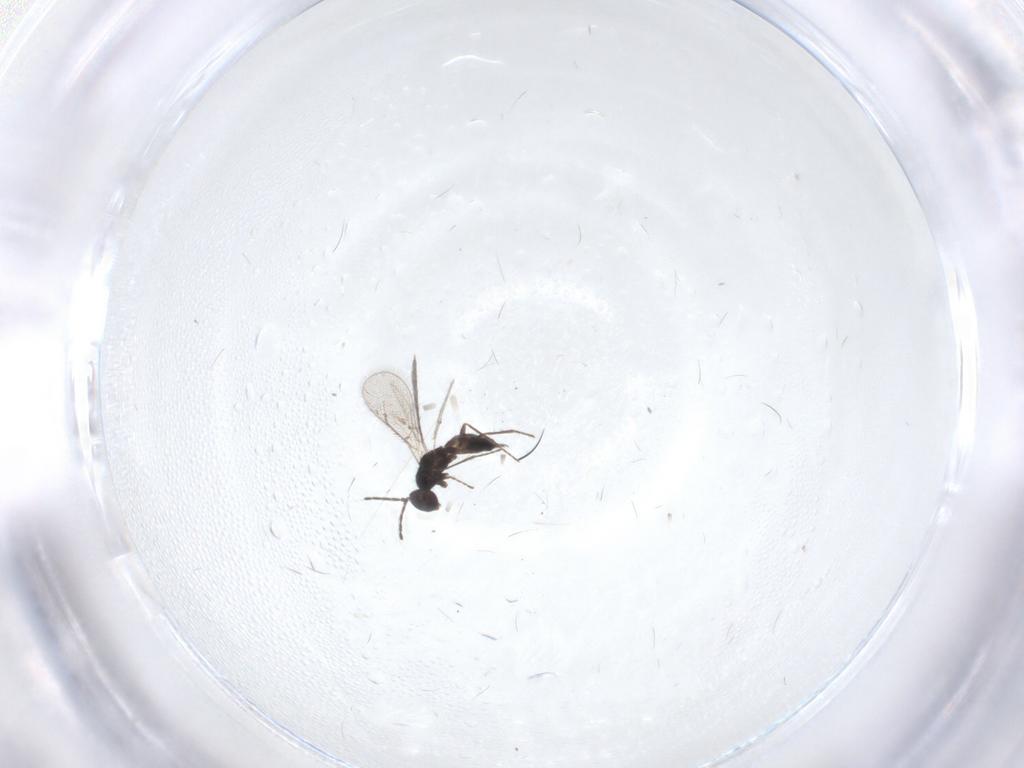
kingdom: Animalia
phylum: Arthropoda
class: Insecta
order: Hymenoptera
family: Eulophidae
